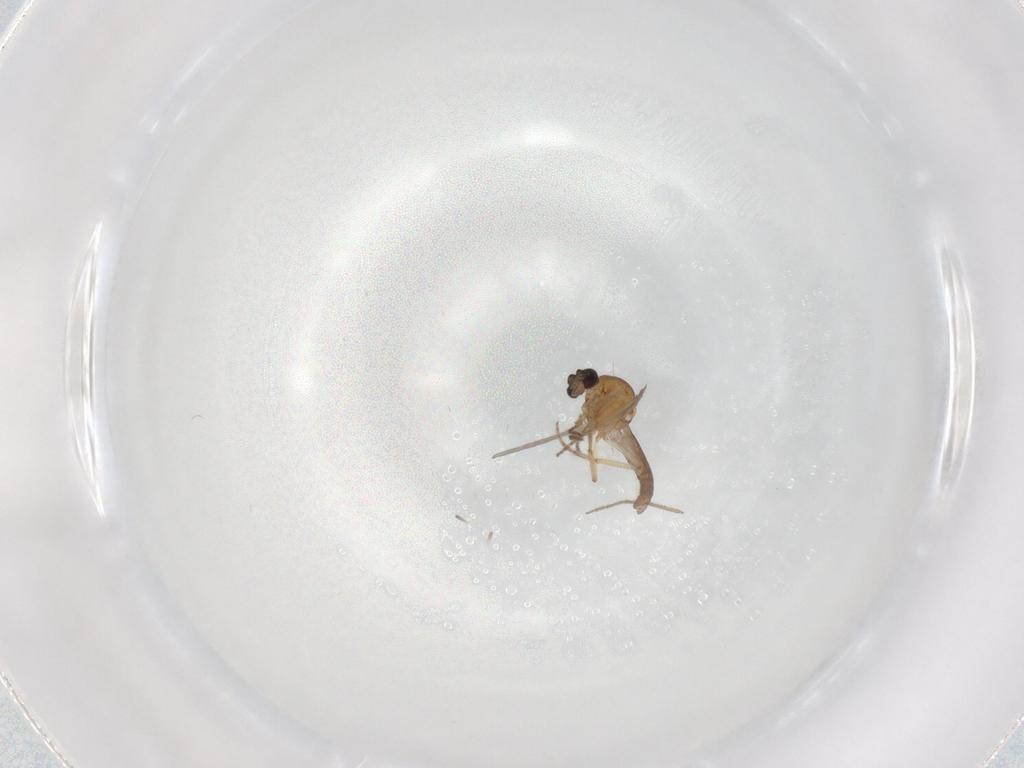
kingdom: Animalia
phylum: Arthropoda
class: Insecta
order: Diptera
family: Chironomidae
